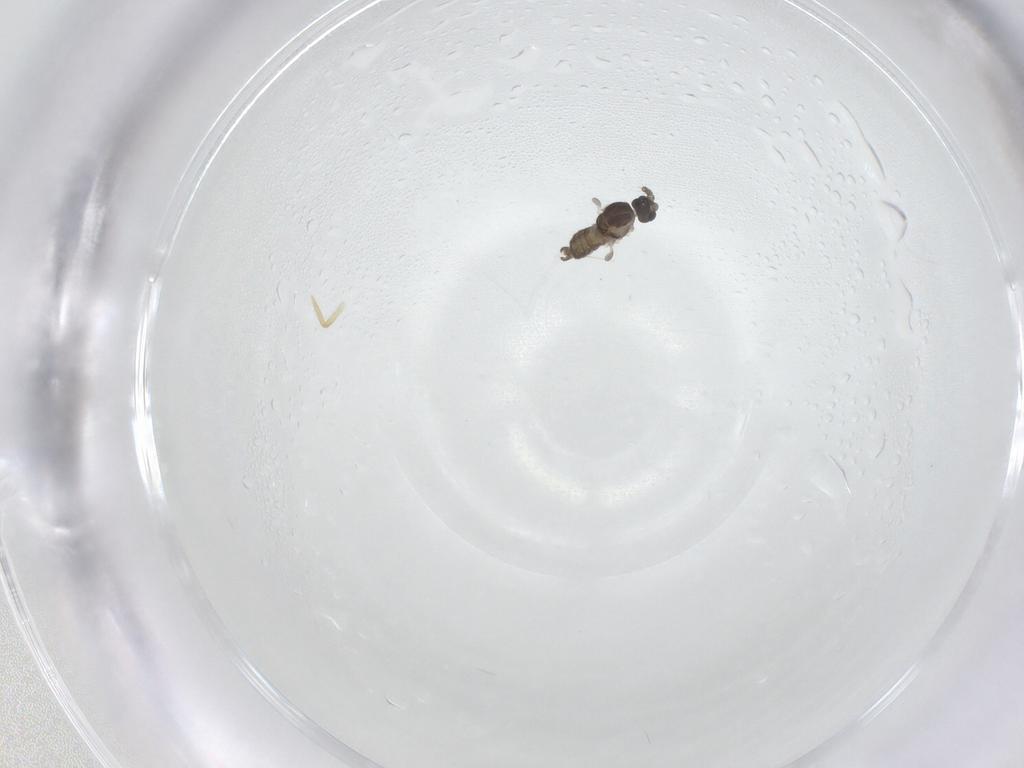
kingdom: Animalia
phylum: Arthropoda
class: Insecta
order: Diptera
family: Cecidomyiidae
